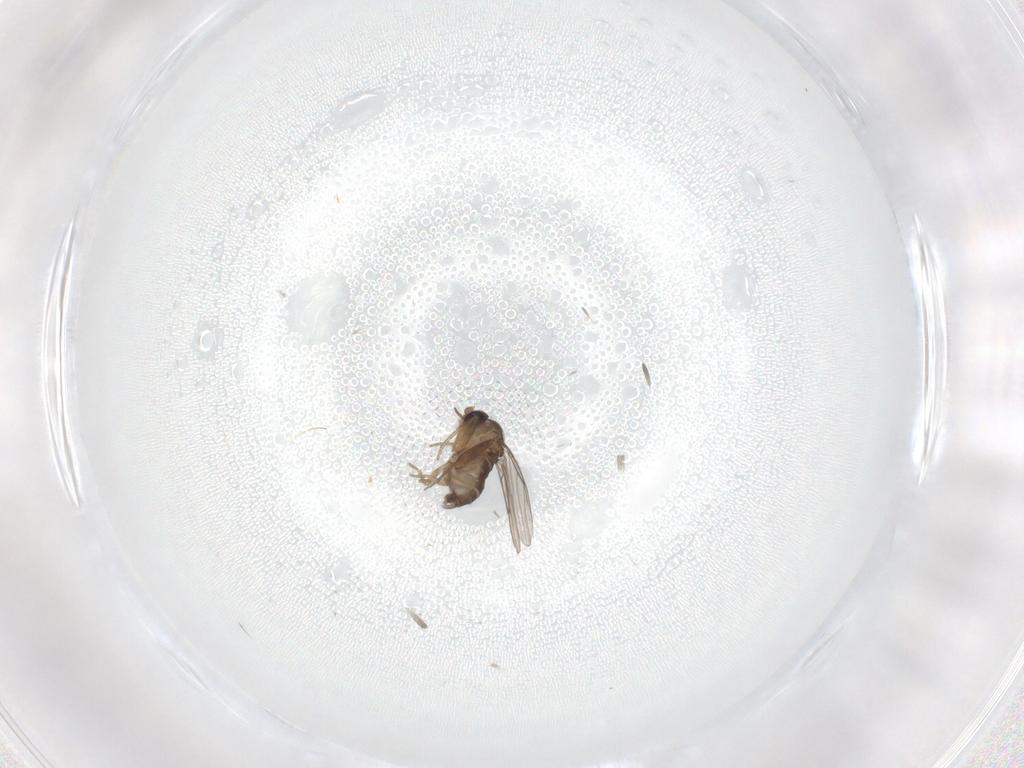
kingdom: Animalia
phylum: Arthropoda
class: Insecta
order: Diptera
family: Phoridae
